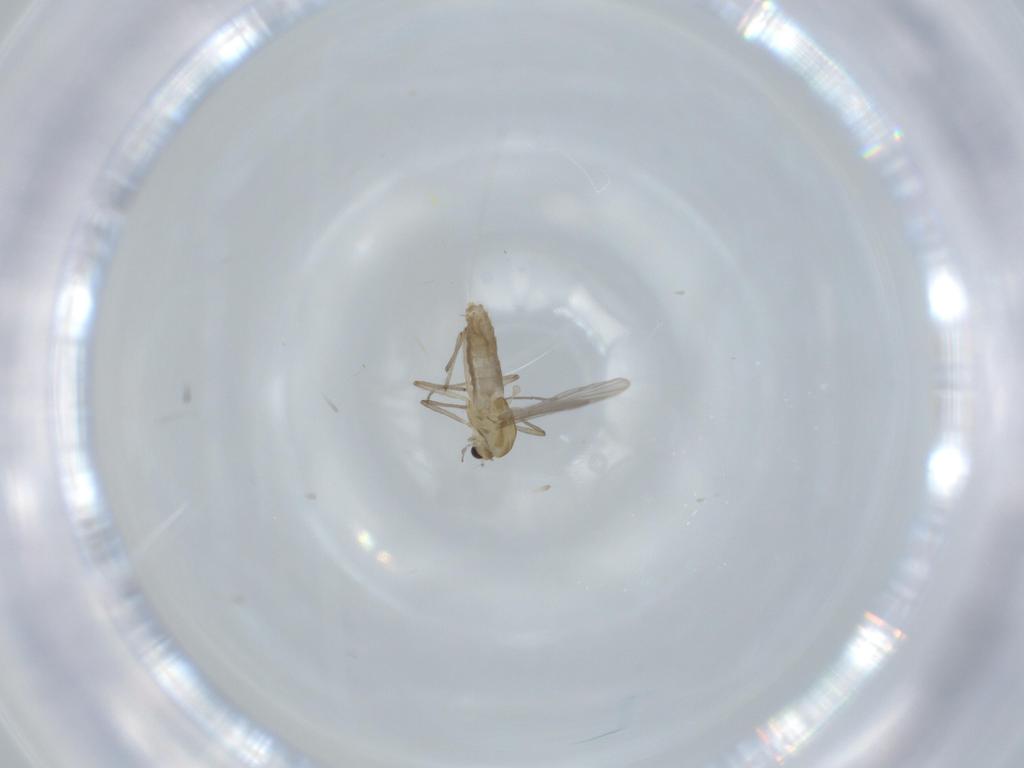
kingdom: Animalia
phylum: Arthropoda
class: Insecta
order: Diptera
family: Chironomidae
